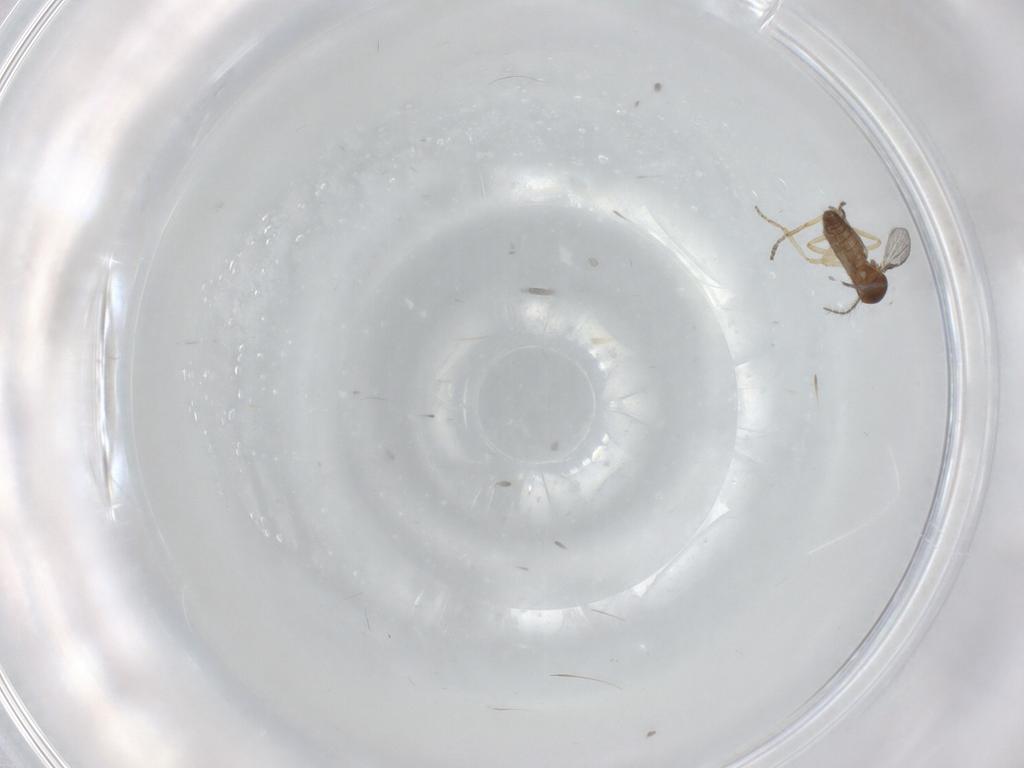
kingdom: Animalia
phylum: Arthropoda
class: Insecta
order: Diptera
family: Ceratopogonidae
